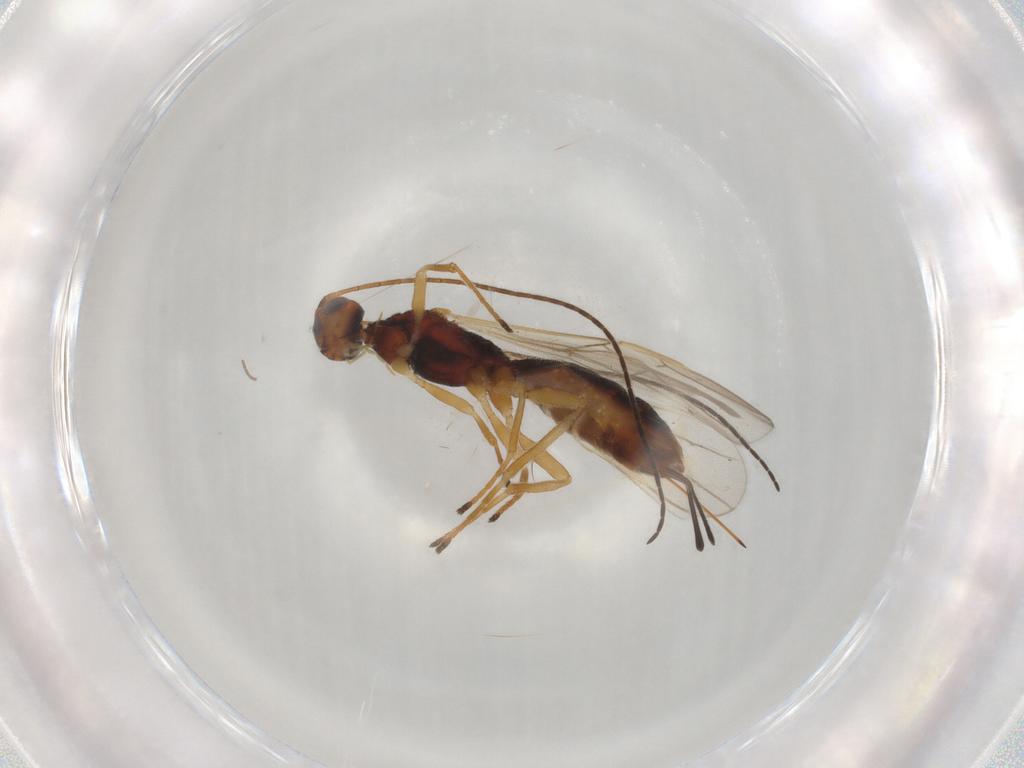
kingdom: Animalia
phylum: Arthropoda
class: Insecta
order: Hymenoptera
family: Braconidae
